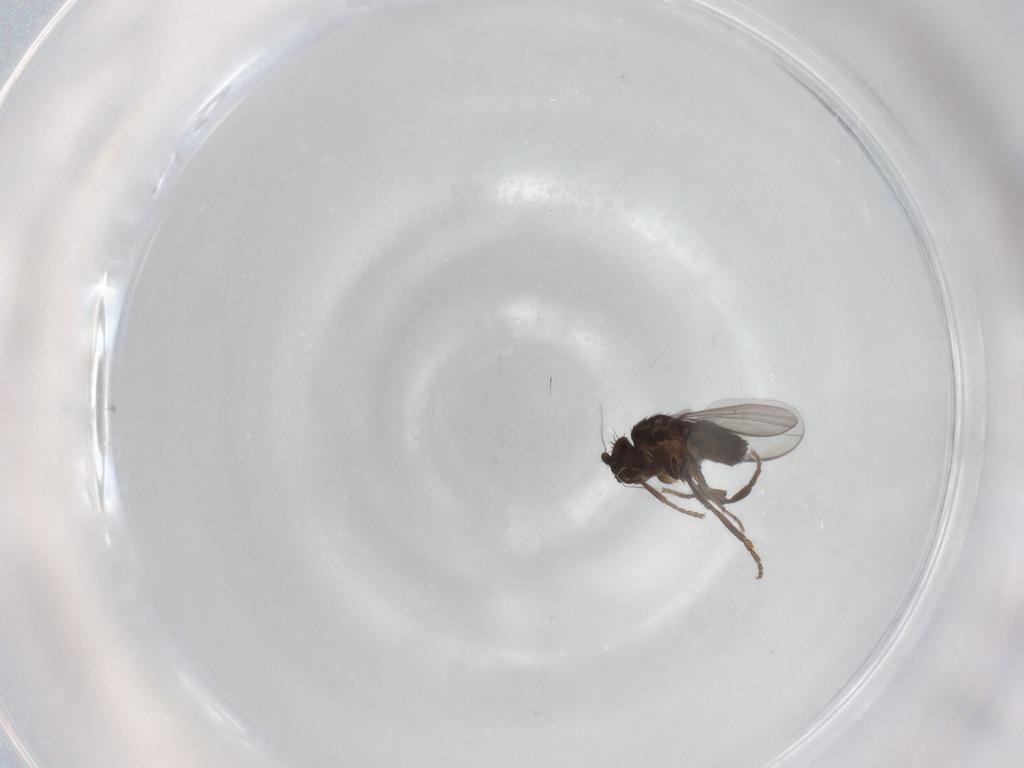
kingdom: Animalia
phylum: Arthropoda
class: Insecta
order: Diptera
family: Sphaeroceridae
